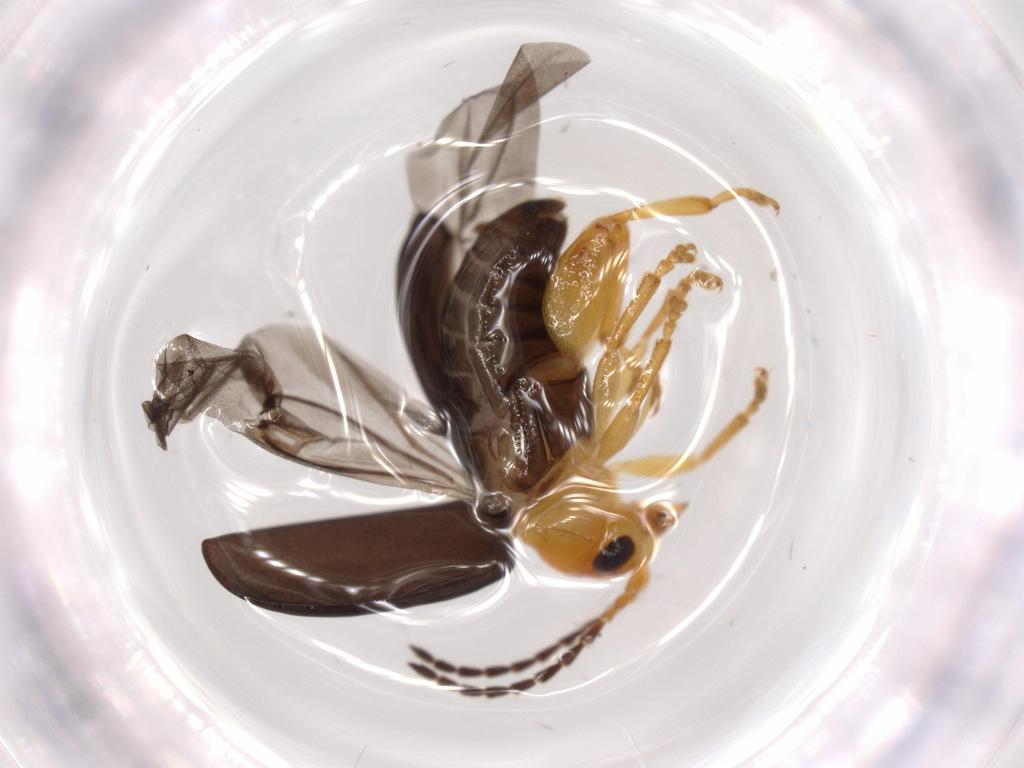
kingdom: Animalia
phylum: Arthropoda
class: Insecta
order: Coleoptera
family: Chrysomelidae
